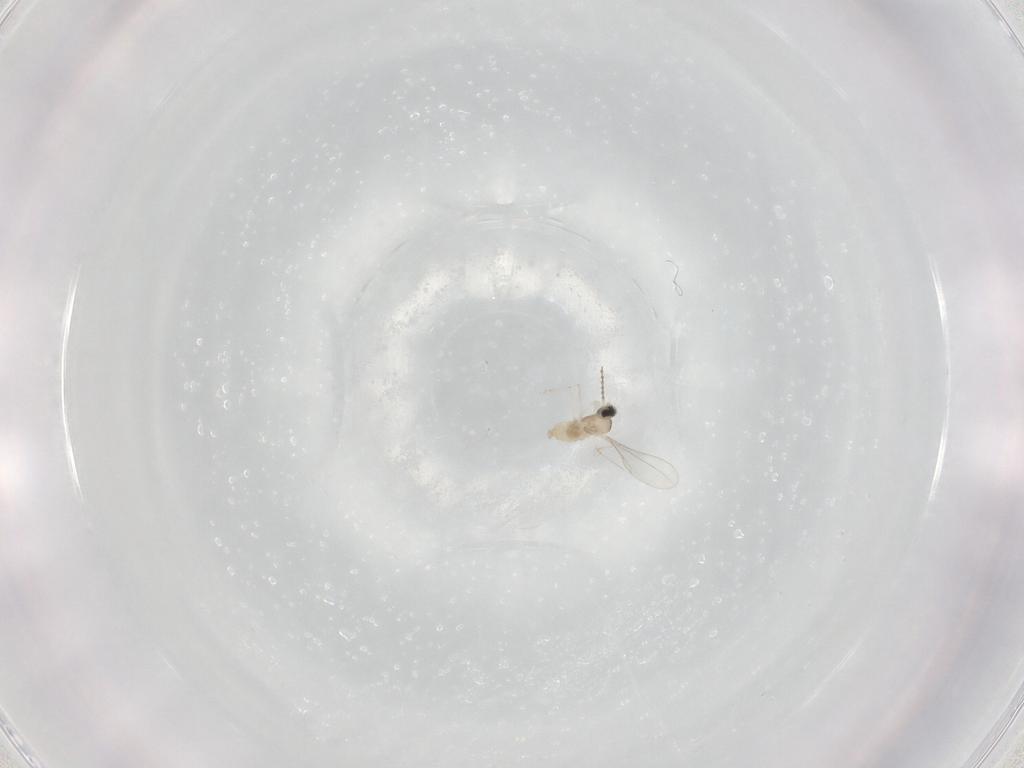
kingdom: Animalia
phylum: Arthropoda
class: Insecta
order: Diptera
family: Cecidomyiidae
